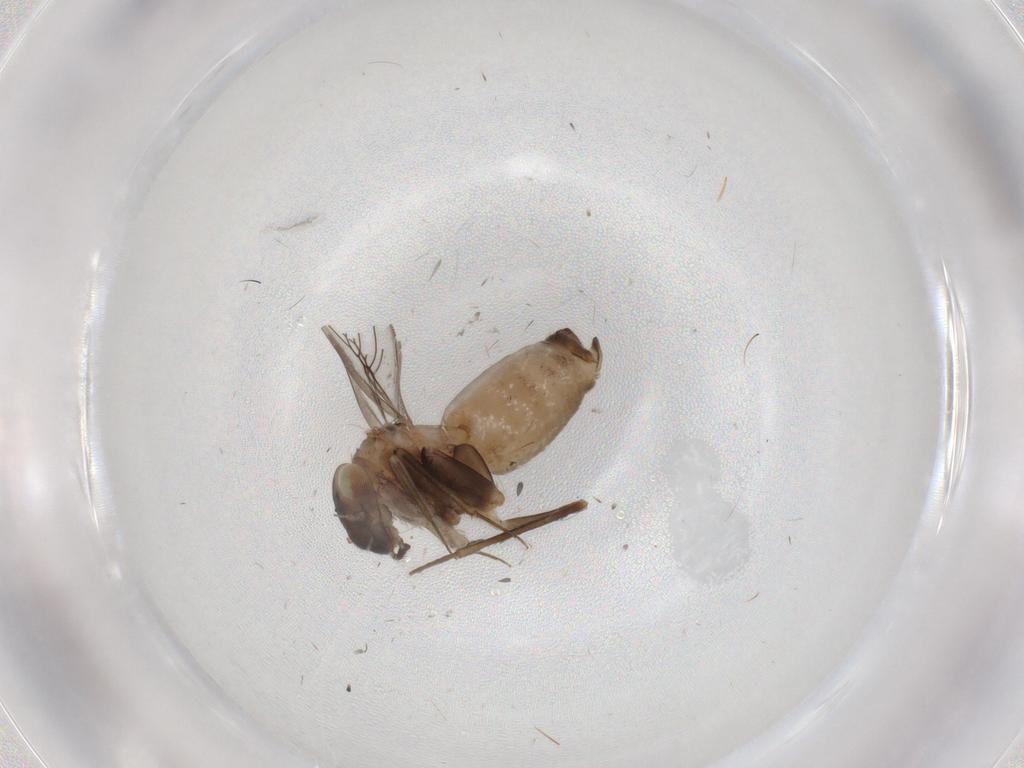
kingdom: Animalia
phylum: Arthropoda
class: Insecta
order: Psocodea
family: Lepidopsocidae
